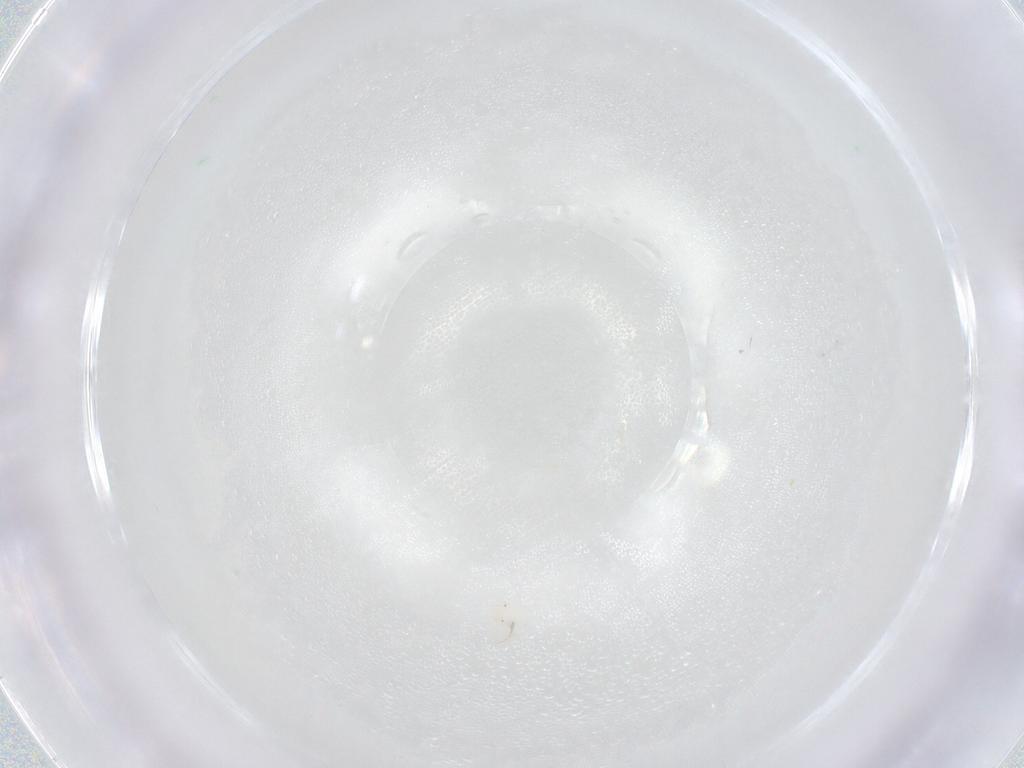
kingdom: Animalia
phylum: Arthropoda
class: Arachnida
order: Trombidiformes
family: Anystidae
